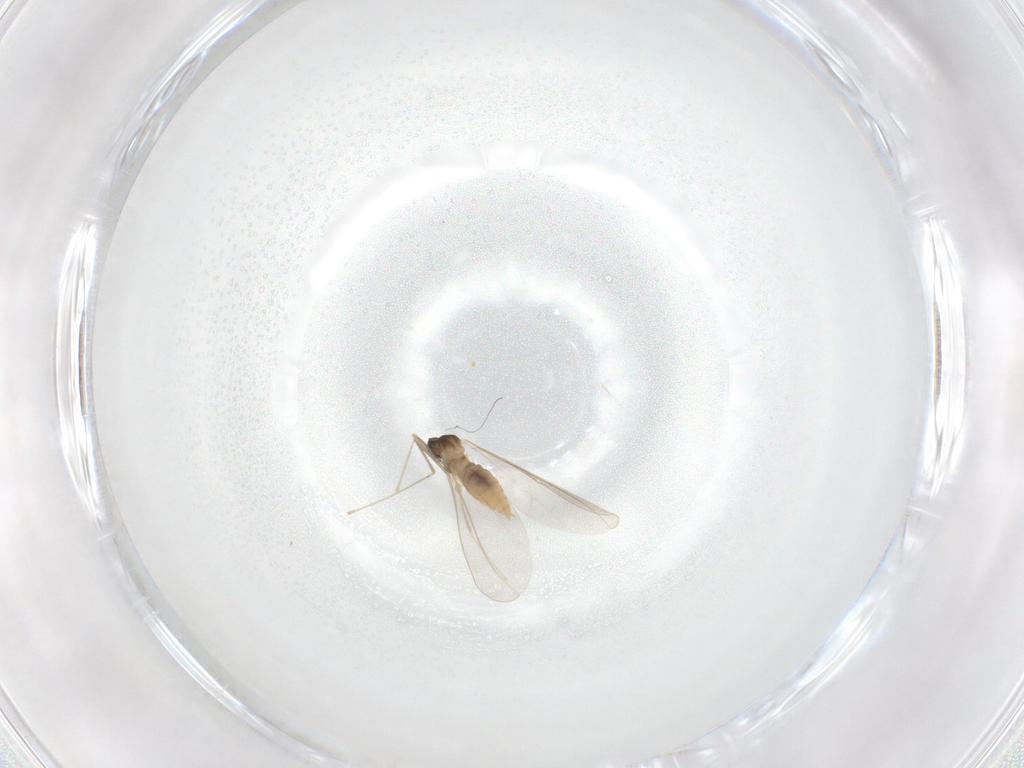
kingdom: Animalia
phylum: Arthropoda
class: Insecta
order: Diptera
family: Cecidomyiidae
